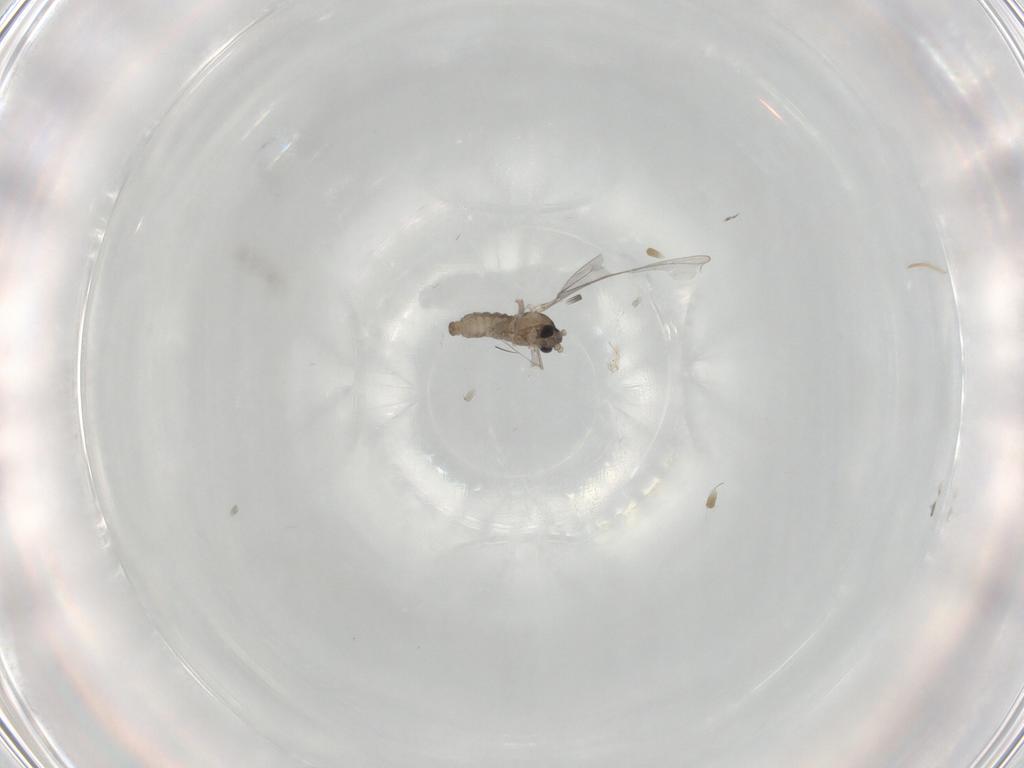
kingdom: Animalia
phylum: Arthropoda
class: Insecta
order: Diptera
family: Cecidomyiidae
